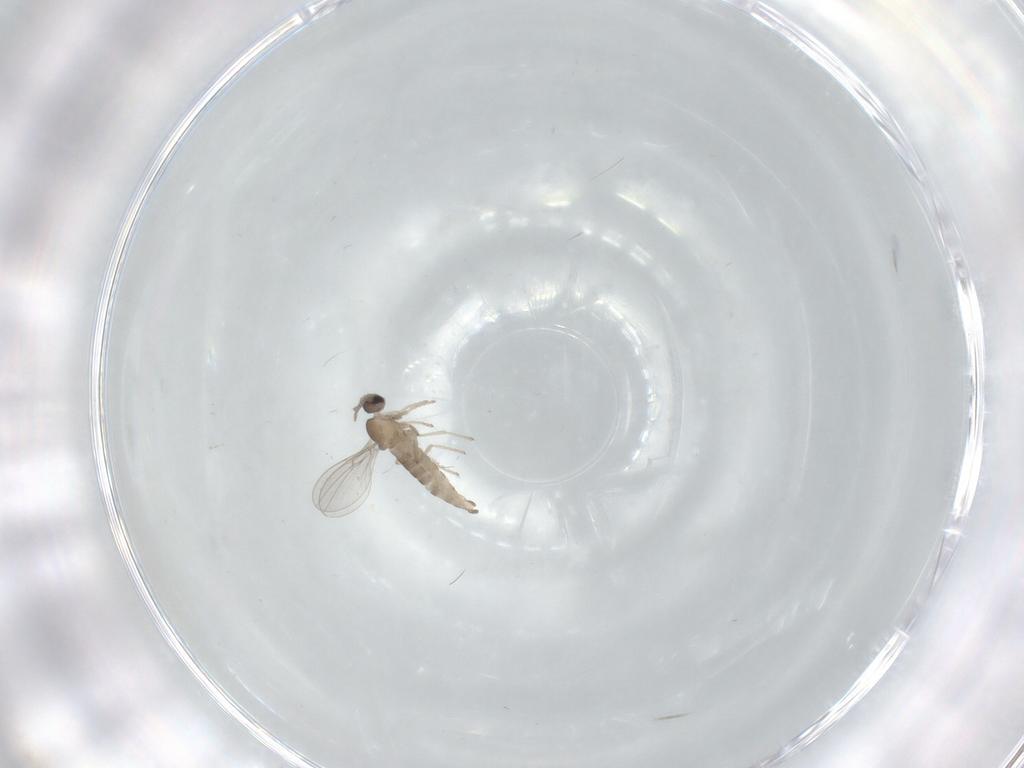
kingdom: Animalia
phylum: Arthropoda
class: Insecta
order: Diptera
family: Cecidomyiidae
